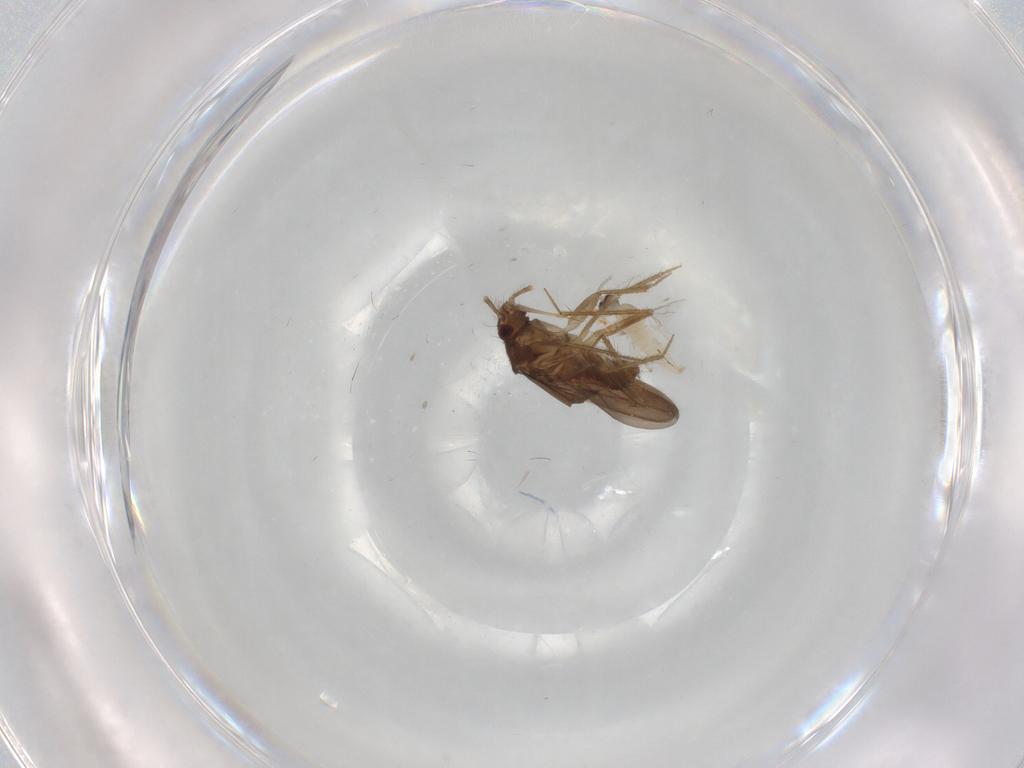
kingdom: Animalia
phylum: Arthropoda
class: Insecta
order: Hemiptera
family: Ceratocombidae
